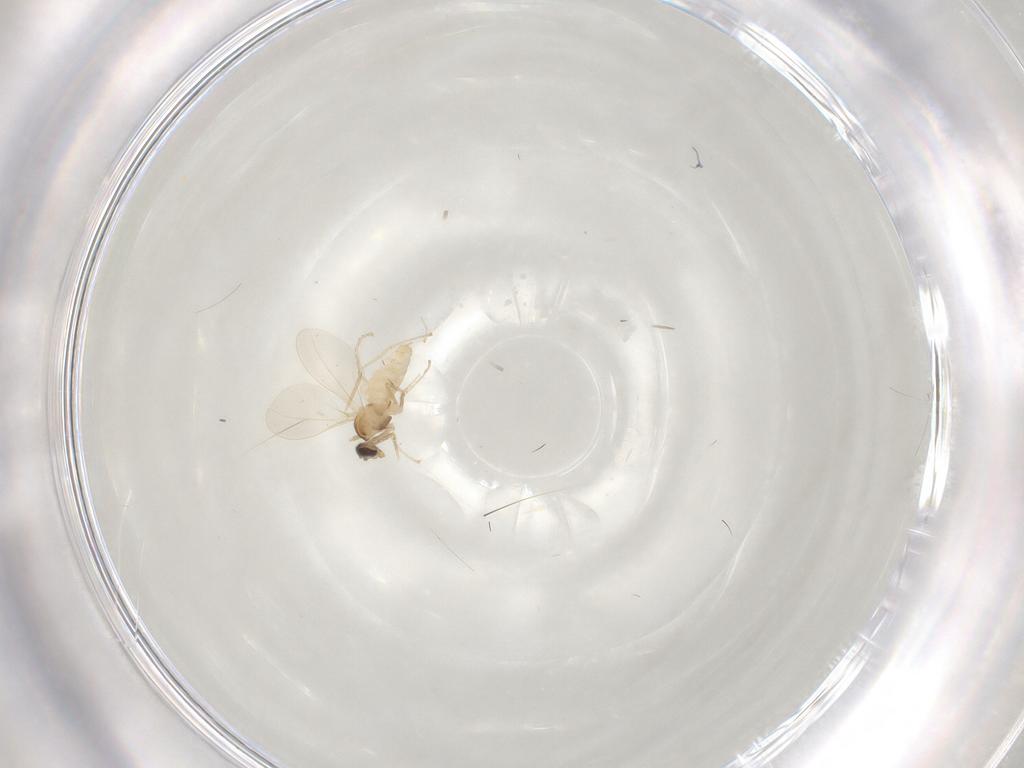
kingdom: Animalia
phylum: Arthropoda
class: Insecta
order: Diptera
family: Cecidomyiidae
